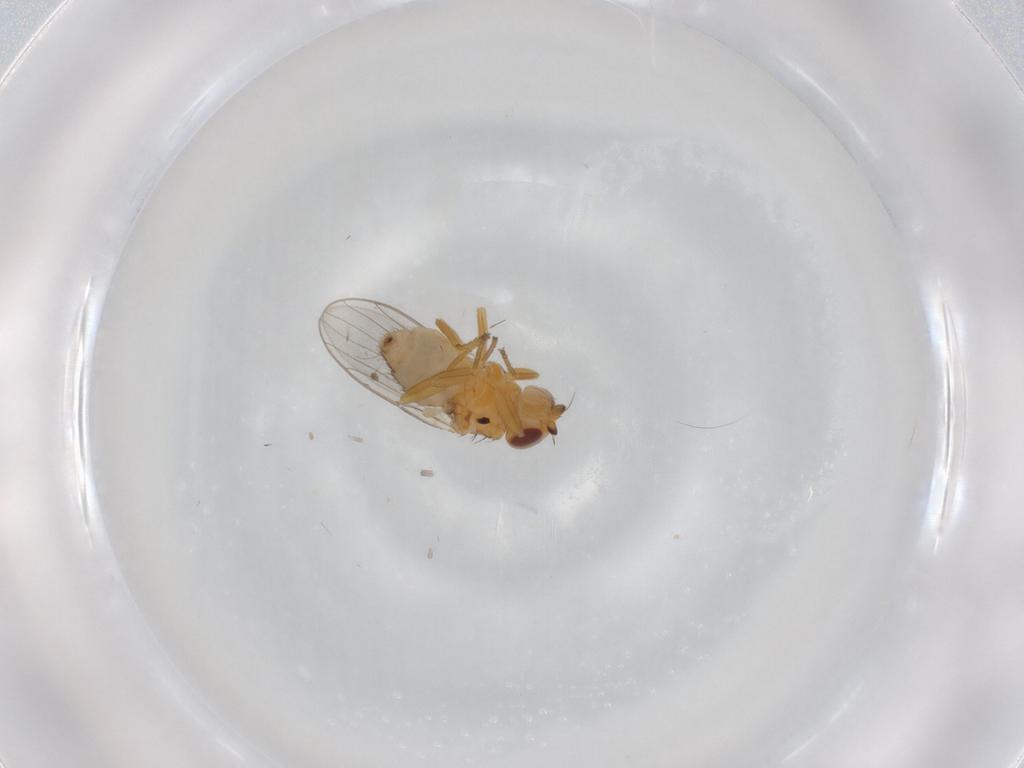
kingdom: Animalia
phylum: Arthropoda
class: Insecta
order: Diptera
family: Chloropidae
